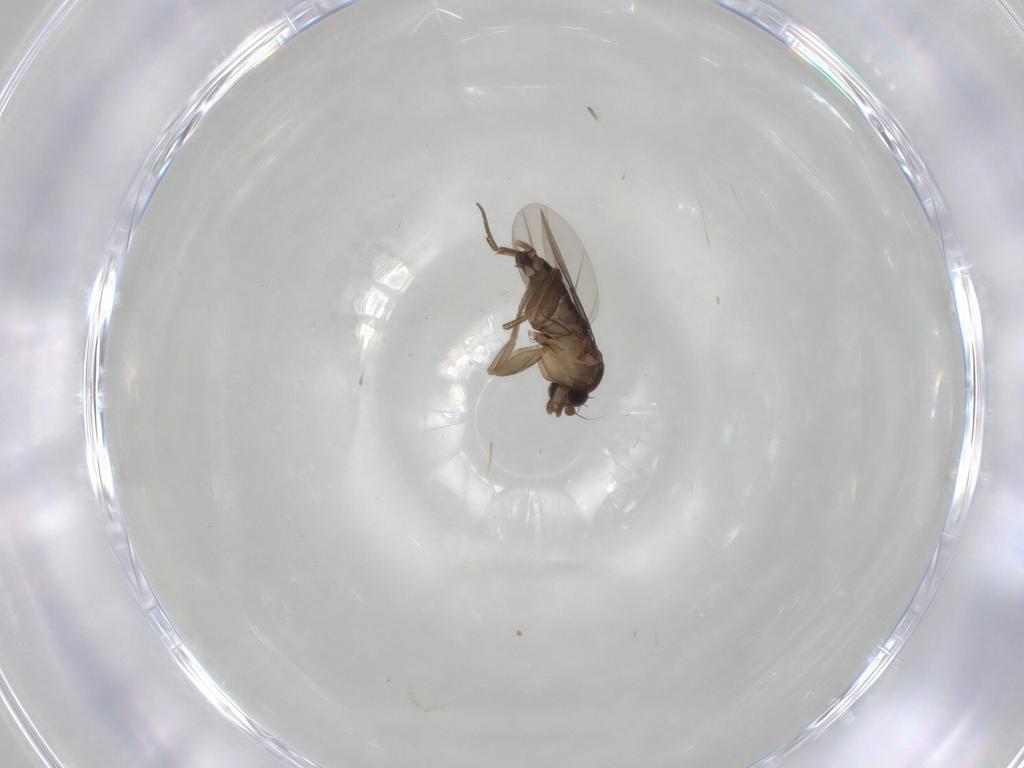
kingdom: Animalia
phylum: Arthropoda
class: Insecta
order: Diptera
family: Phoridae
